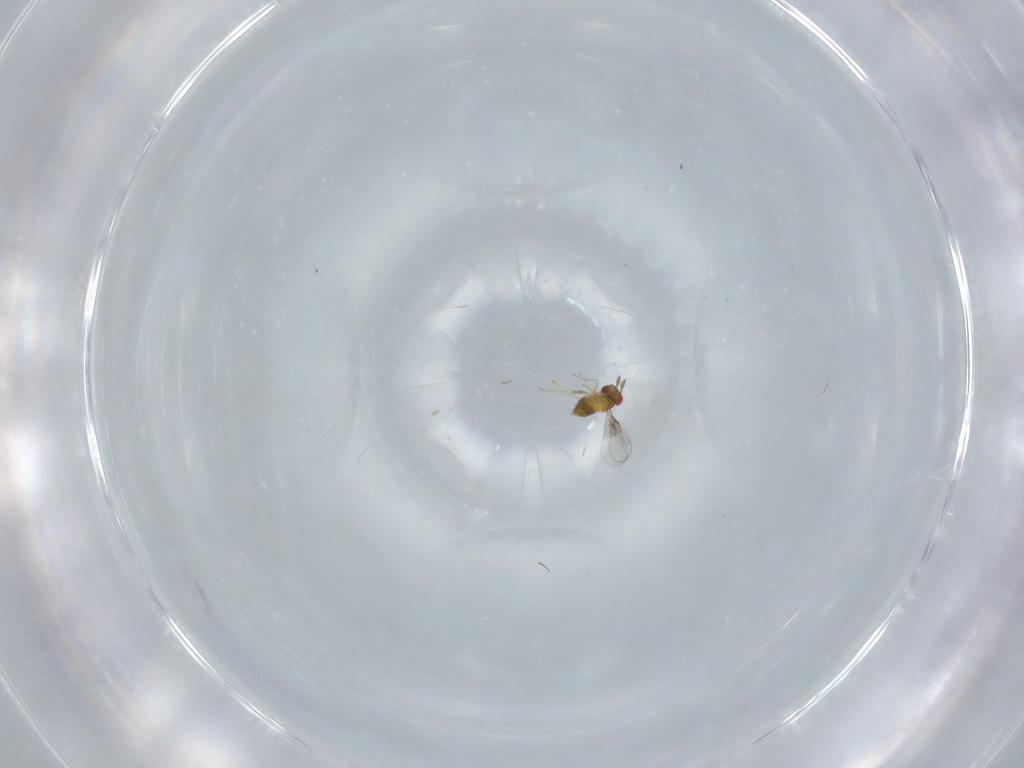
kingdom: Animalia
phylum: Arthropoda
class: Insecta
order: Hymenoptera
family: Trichogrammatidae
